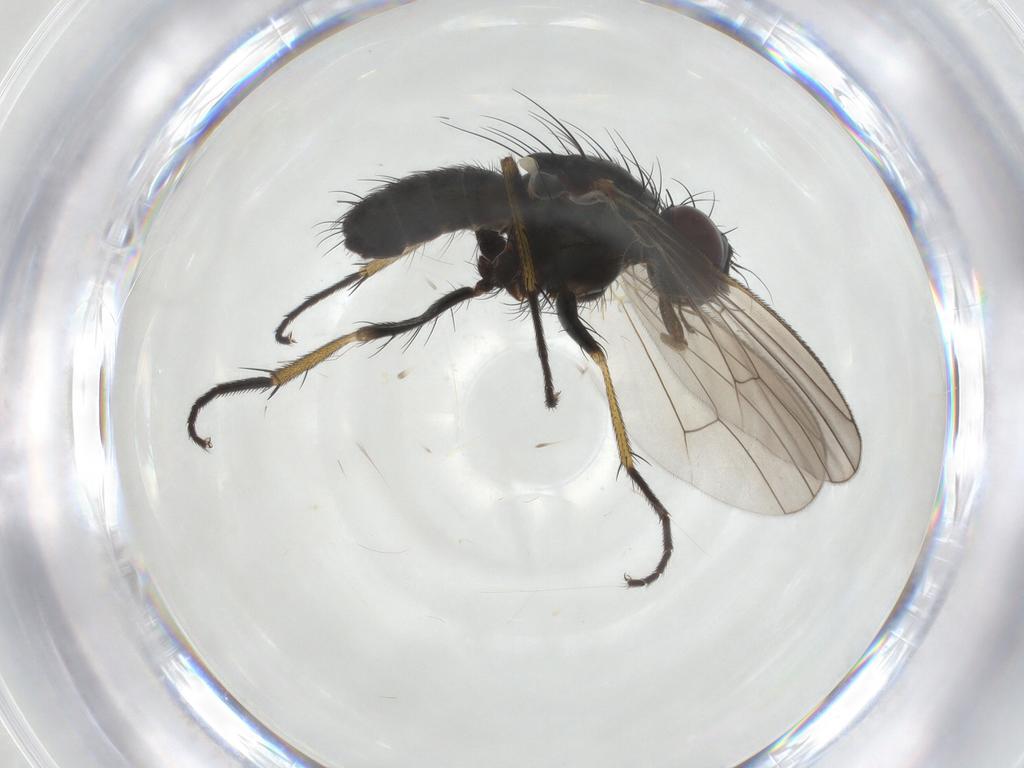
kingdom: Animalia
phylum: Arthropoda
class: Insecta
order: Diptera
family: Muscidae
